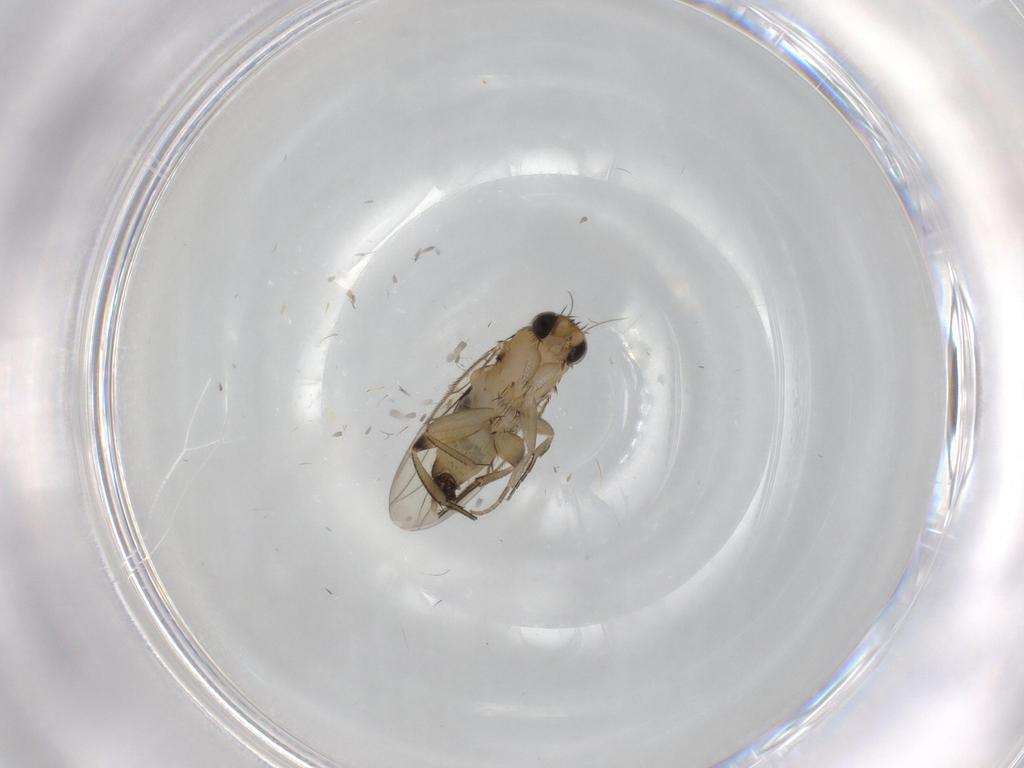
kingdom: Animalia
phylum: Arthropoda
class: Insecta
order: Diptera
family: Phoridae
